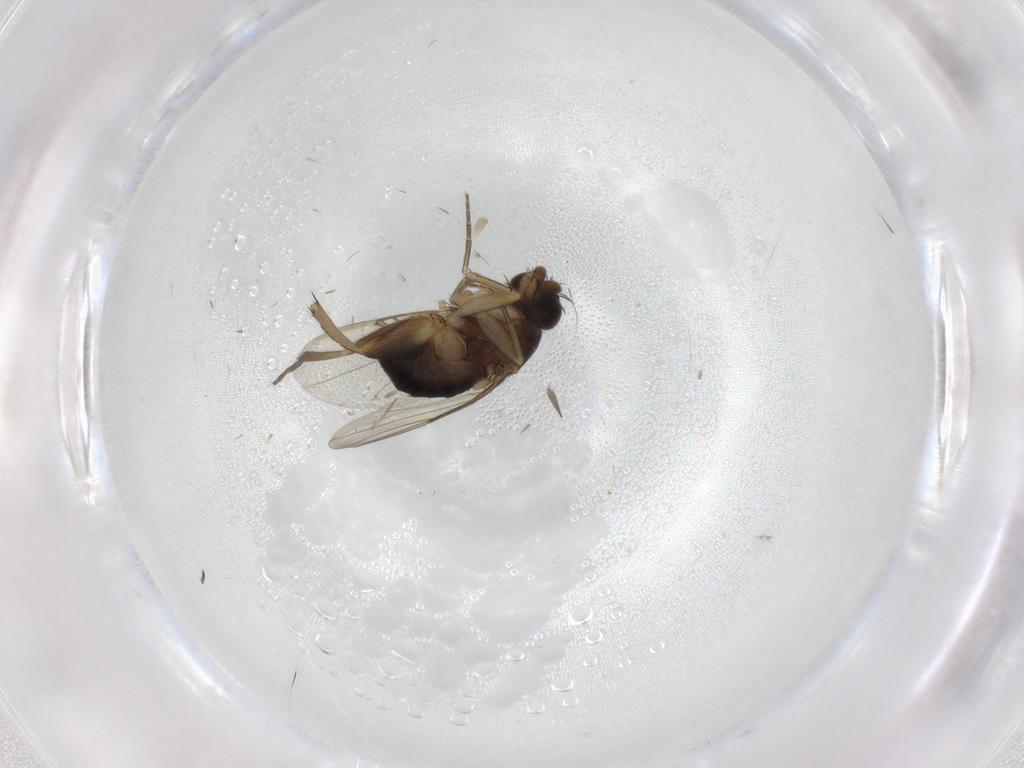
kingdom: Animalia
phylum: Arthropoda
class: Insecta
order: Diptera
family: Phoridae
